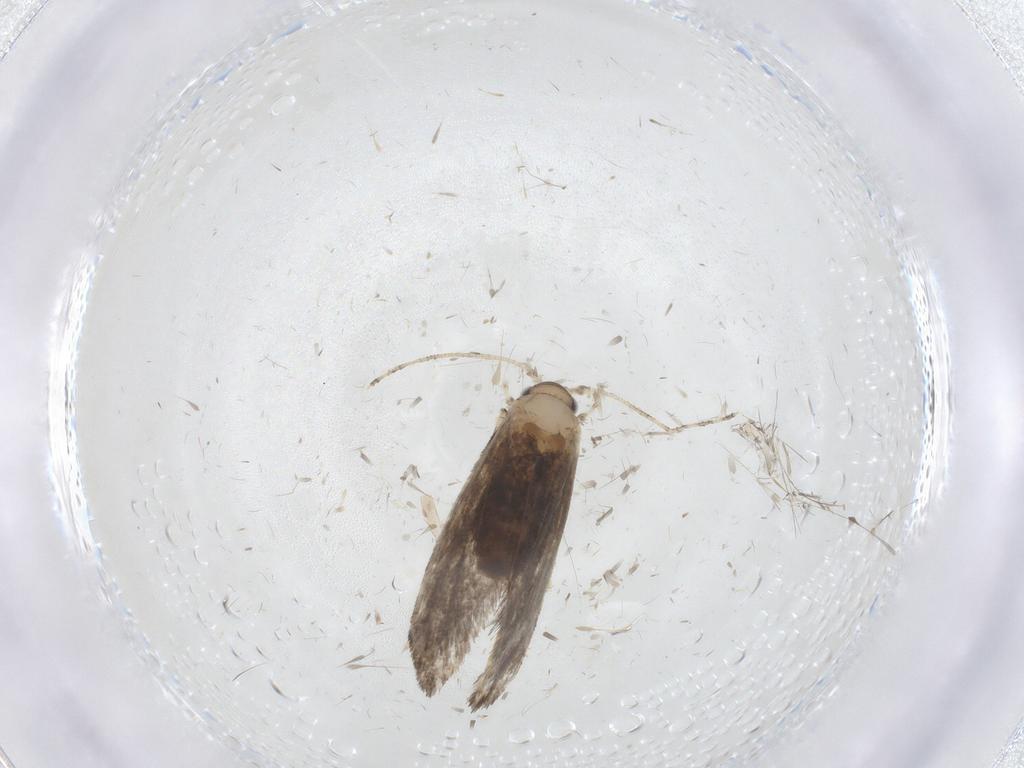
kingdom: Animalia
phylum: Arthropoda
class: Insecta
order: Lepidoptera
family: Tineidae
